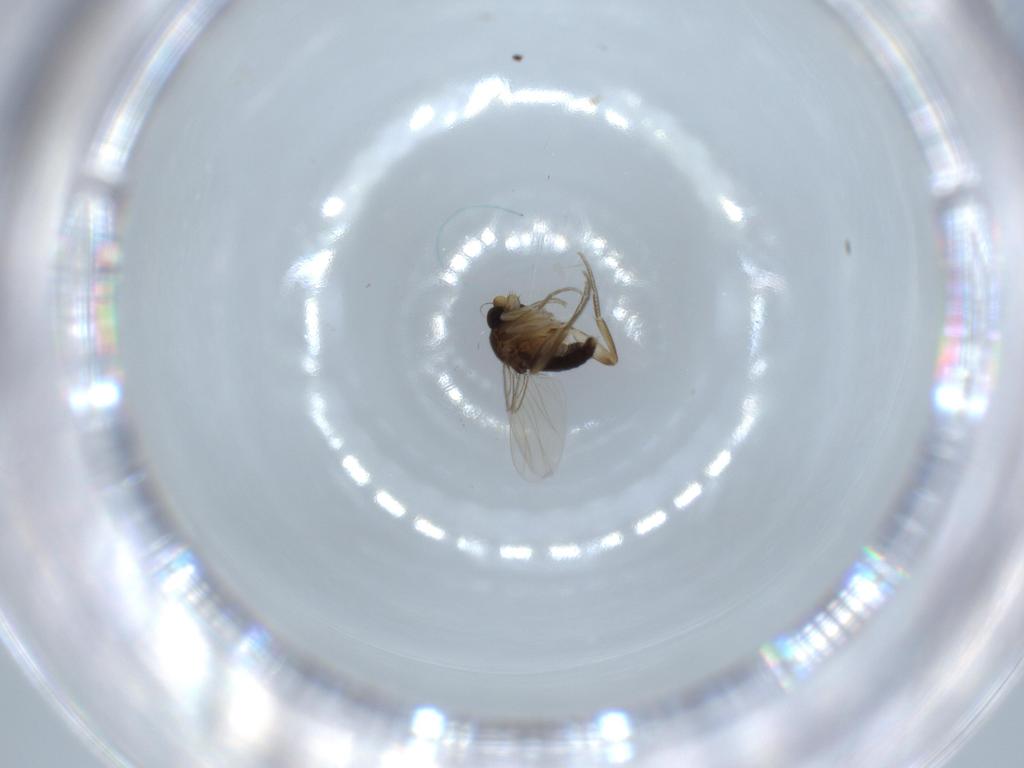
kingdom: Animalia
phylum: Arthropoda
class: Insecta
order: Diptera
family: Phoridae
